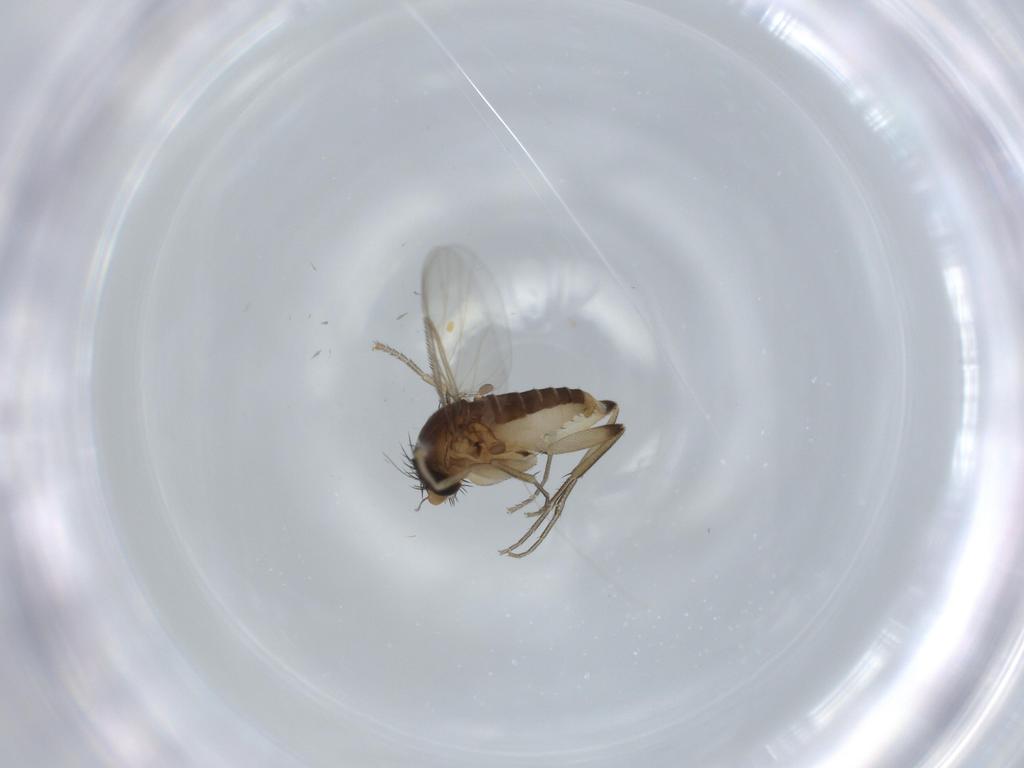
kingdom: Animalia
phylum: Arthropoda
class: Insecta
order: Diptera
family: Phoridae
